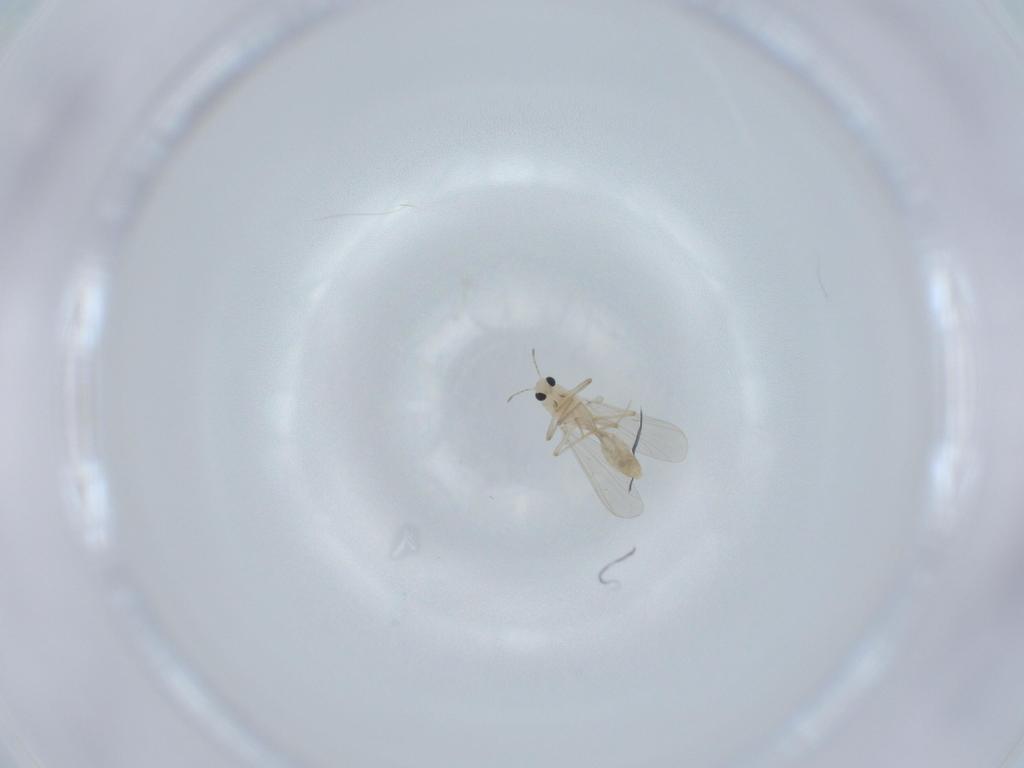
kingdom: Animalia
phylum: Arthropoda
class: Insecta
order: Diptera
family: Chironomidae
